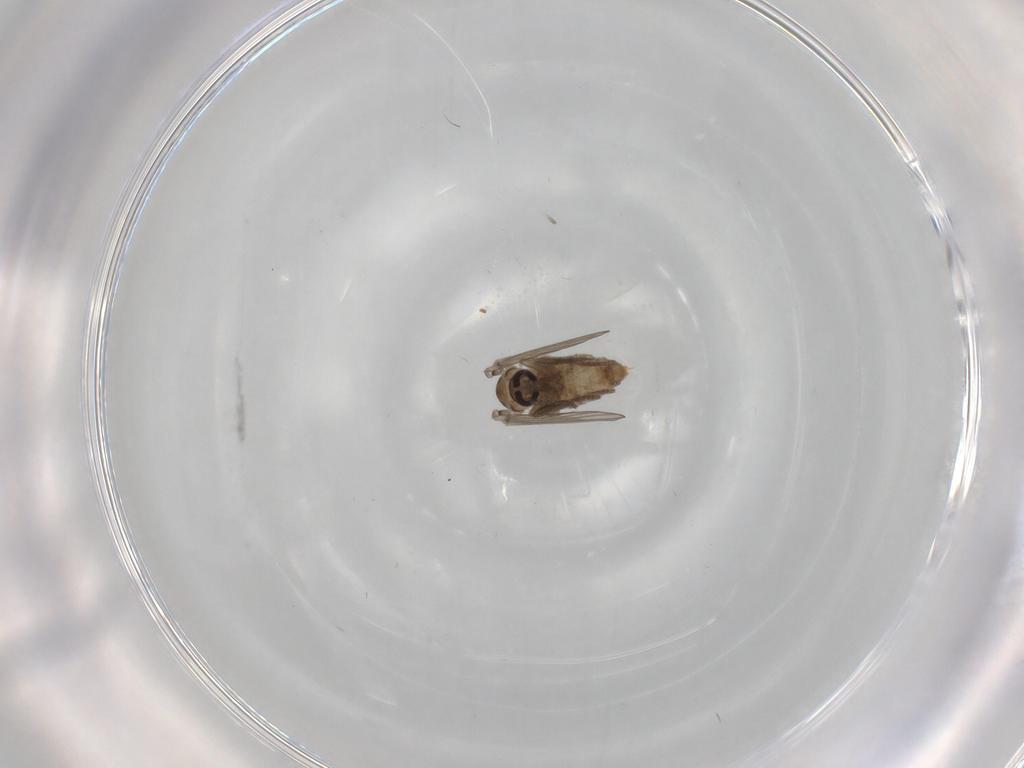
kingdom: Animalia
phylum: Arthropoda
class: Insecta
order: Diptera
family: Psychodidae
